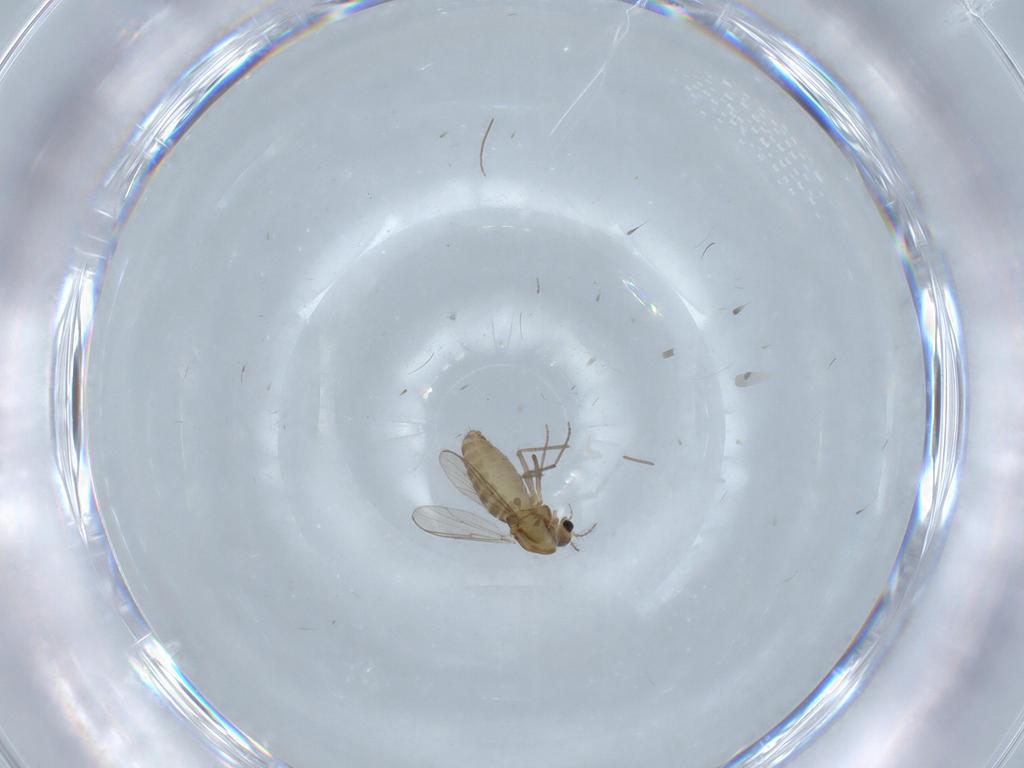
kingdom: Animalia
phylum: Arthropoda
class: Insecta
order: Diptera
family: Chironomidae
